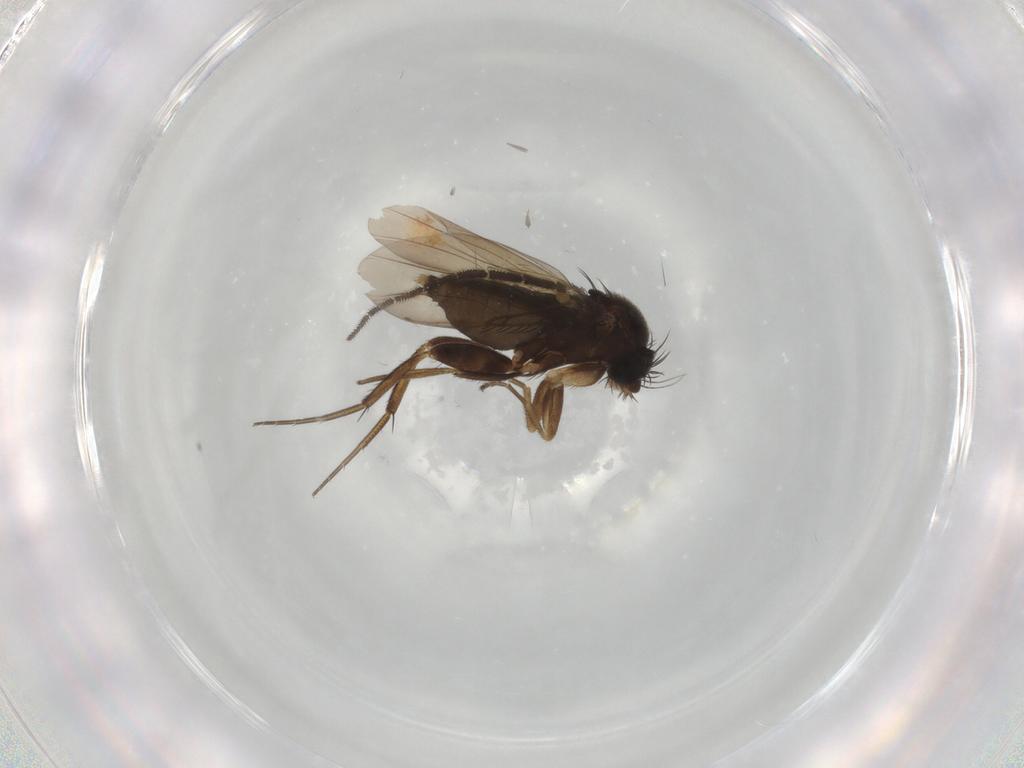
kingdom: Animalia
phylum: Arthropoda
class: Insecta
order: Diptera
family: Phoridae
